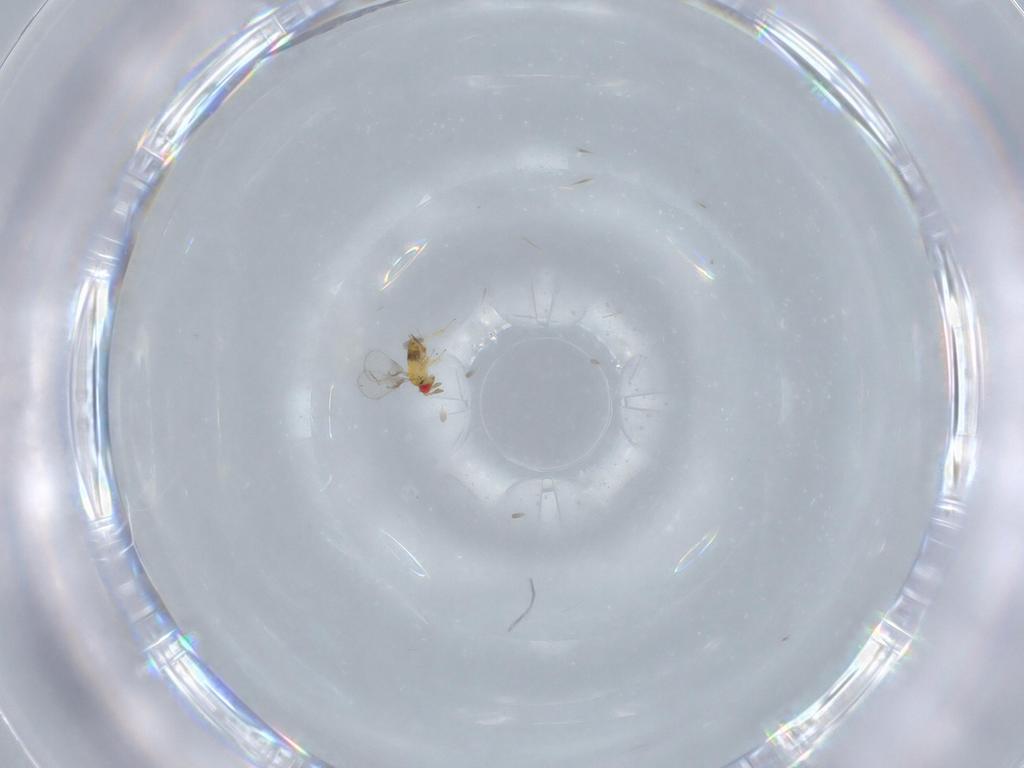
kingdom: Animalia
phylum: Arthropoda
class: Insecta
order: Hymenoptera
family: Trichogrammatidae
